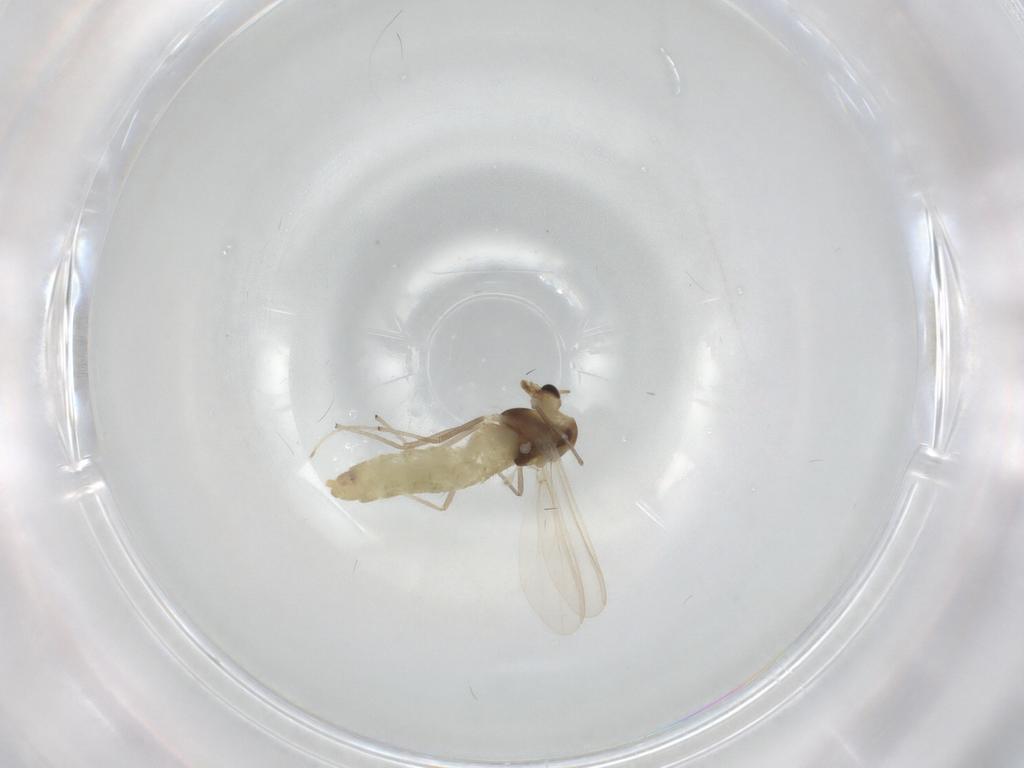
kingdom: Animalia
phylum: Arthropoda
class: Insecta
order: Diptera
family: Chironomidae
